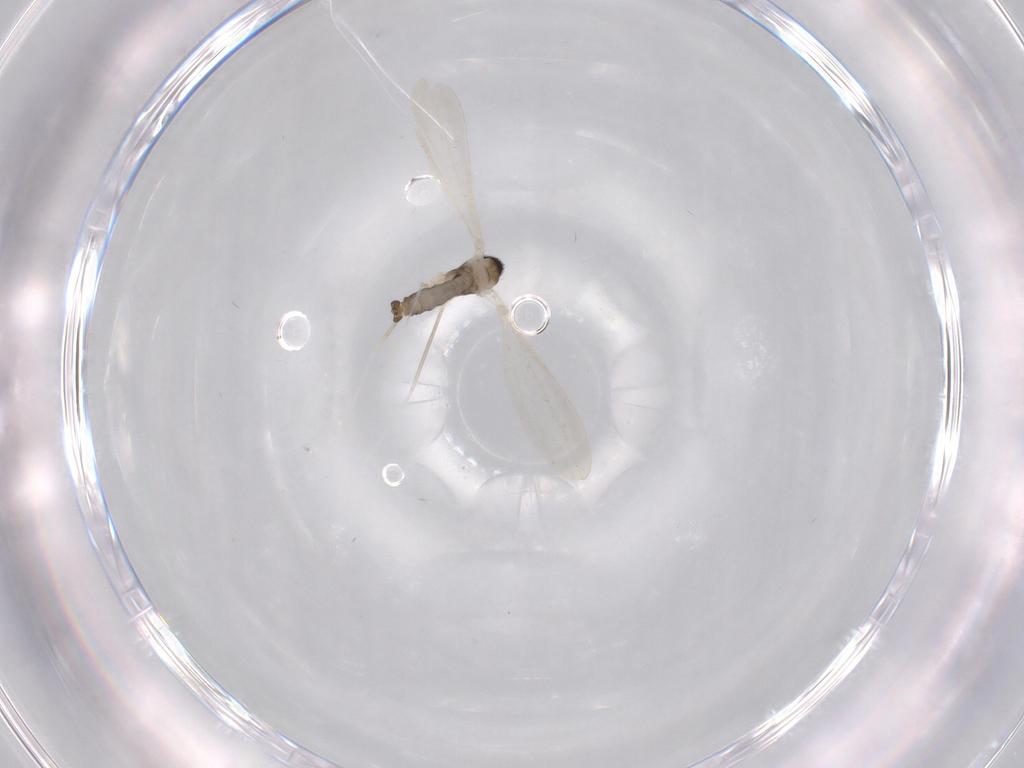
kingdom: Animalia
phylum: Arthropoda
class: Insecta
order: Diptera
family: Cecidomyiidae
